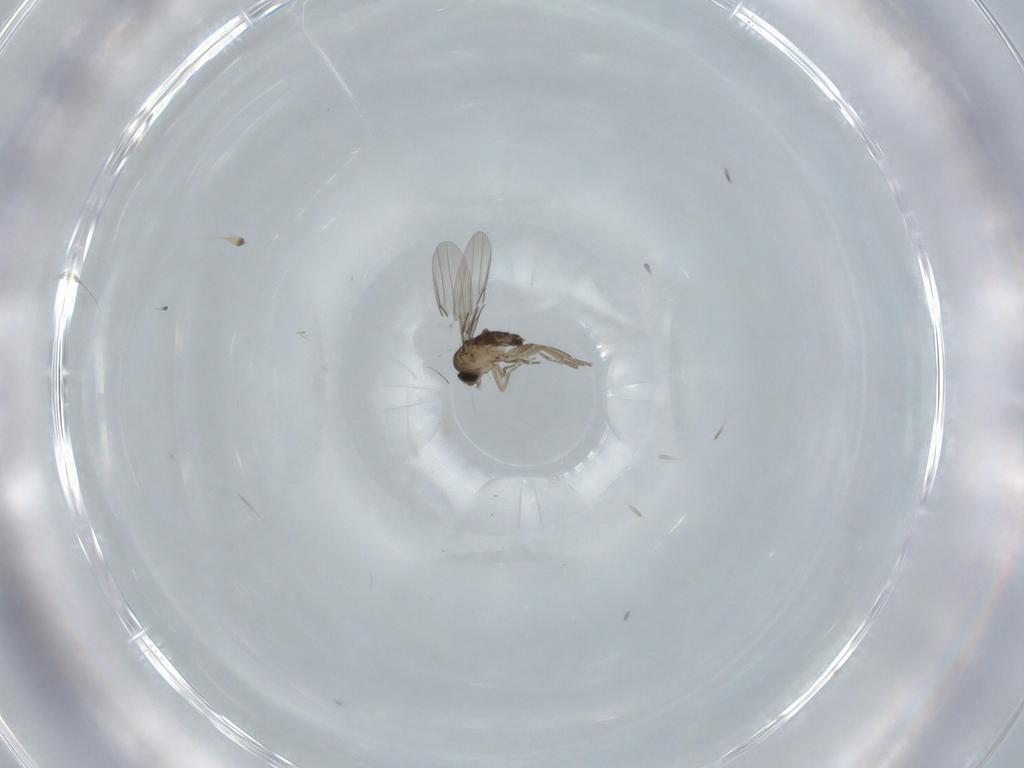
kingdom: Animalia
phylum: Arthropoda
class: Insecta
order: Diptera
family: Phoridae
